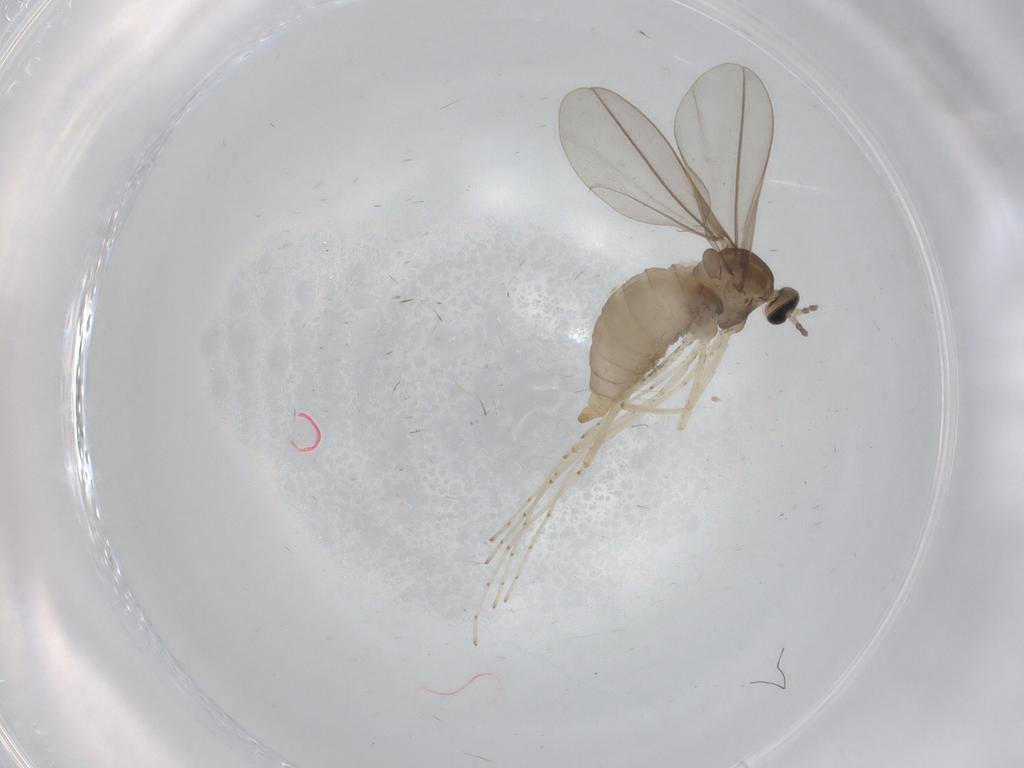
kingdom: Animalia
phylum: Arthropoda
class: Insecta
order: Diptera
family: Cecidomyiidae
